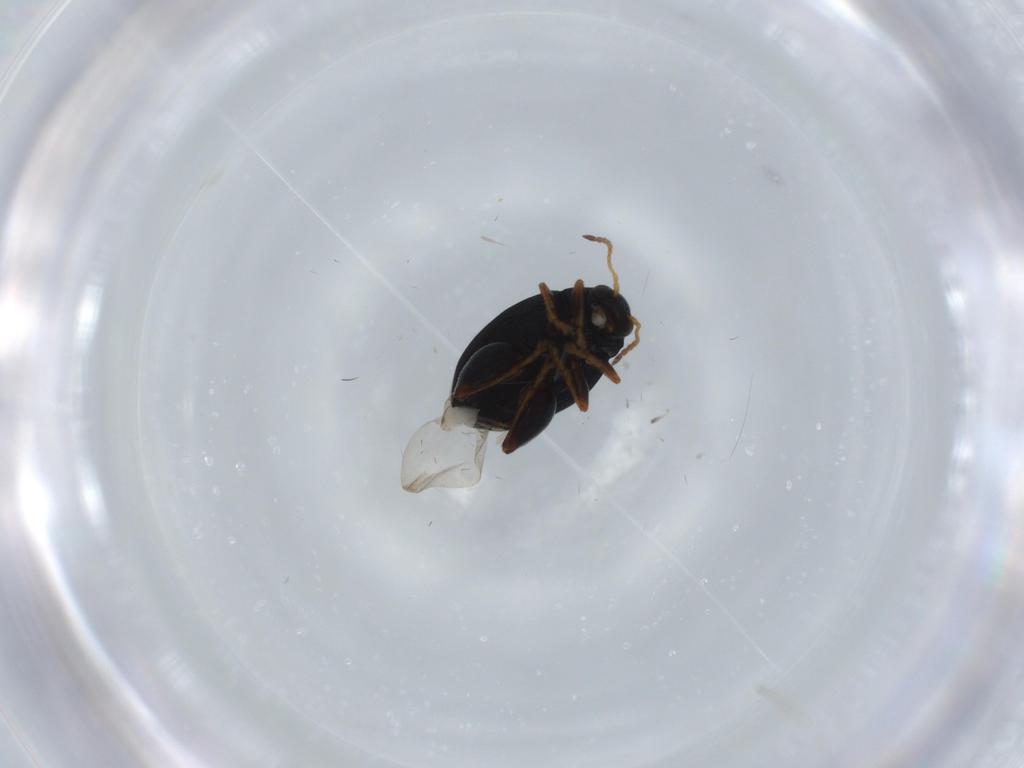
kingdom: Animalia
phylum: Arthropoda
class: Insecta
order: Coleoptera
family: Chrysomelidae
